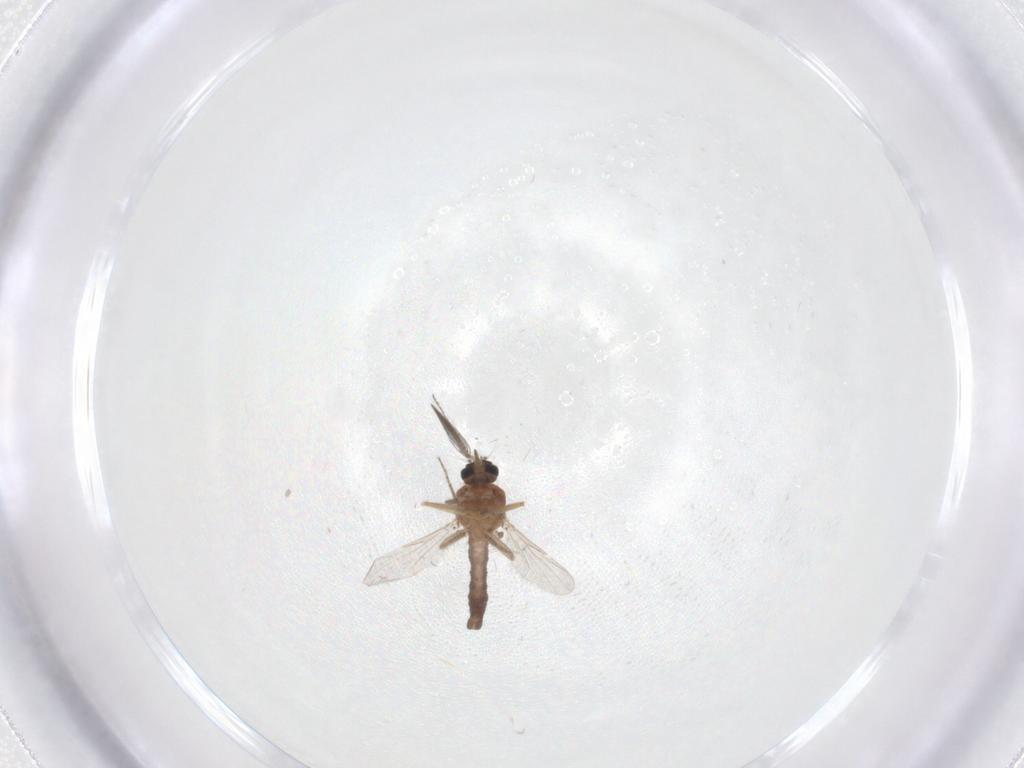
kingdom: Animalia
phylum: Arthropoda
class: Insecta
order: Diptera
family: Ceratopogonidae
